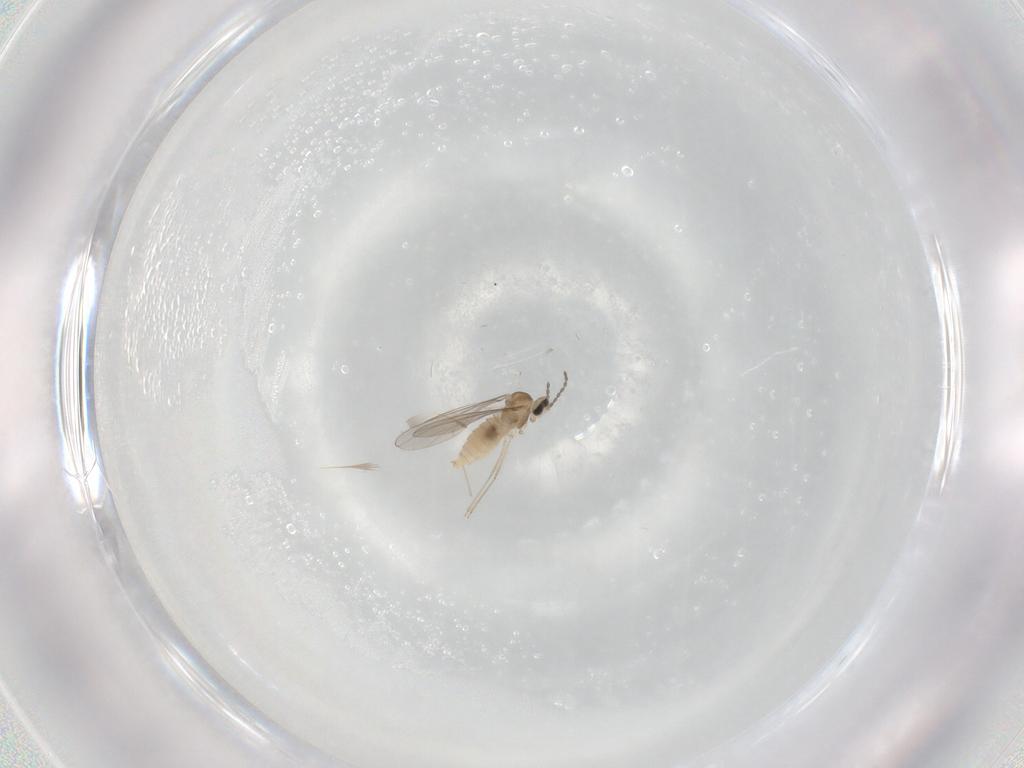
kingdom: Animalia
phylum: Arthropoda
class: Insecta
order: Diptera
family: Cecidomyiidae
